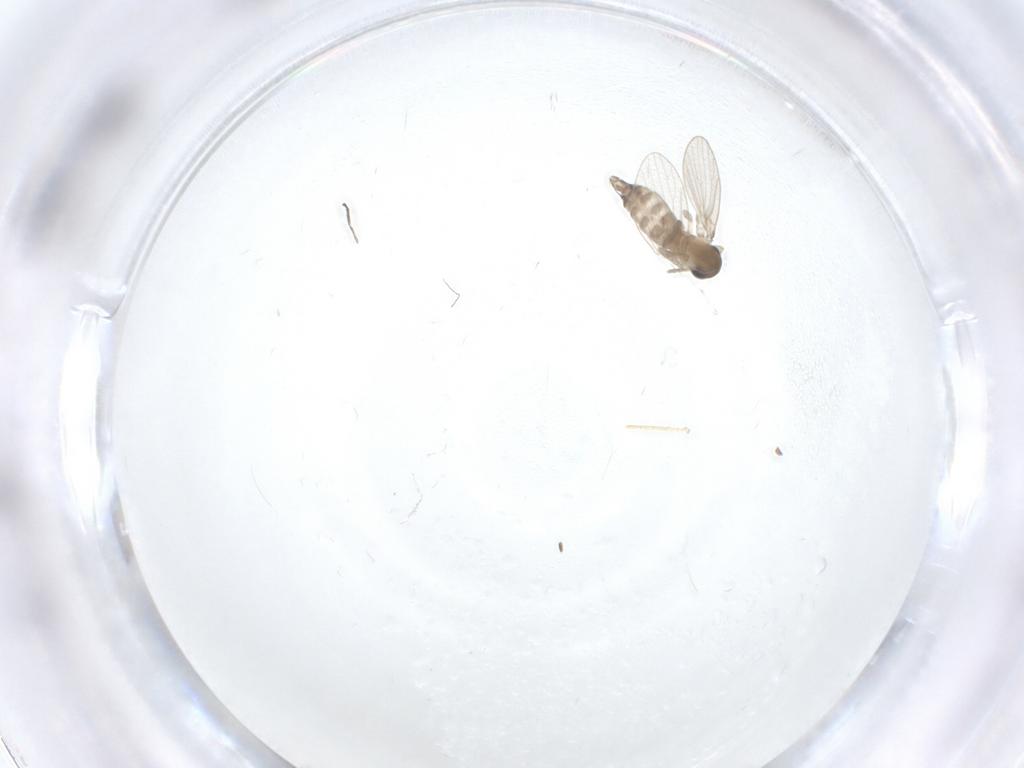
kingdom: Animalia
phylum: Arthropoda
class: Insecta
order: Diptera
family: Psychodidae
